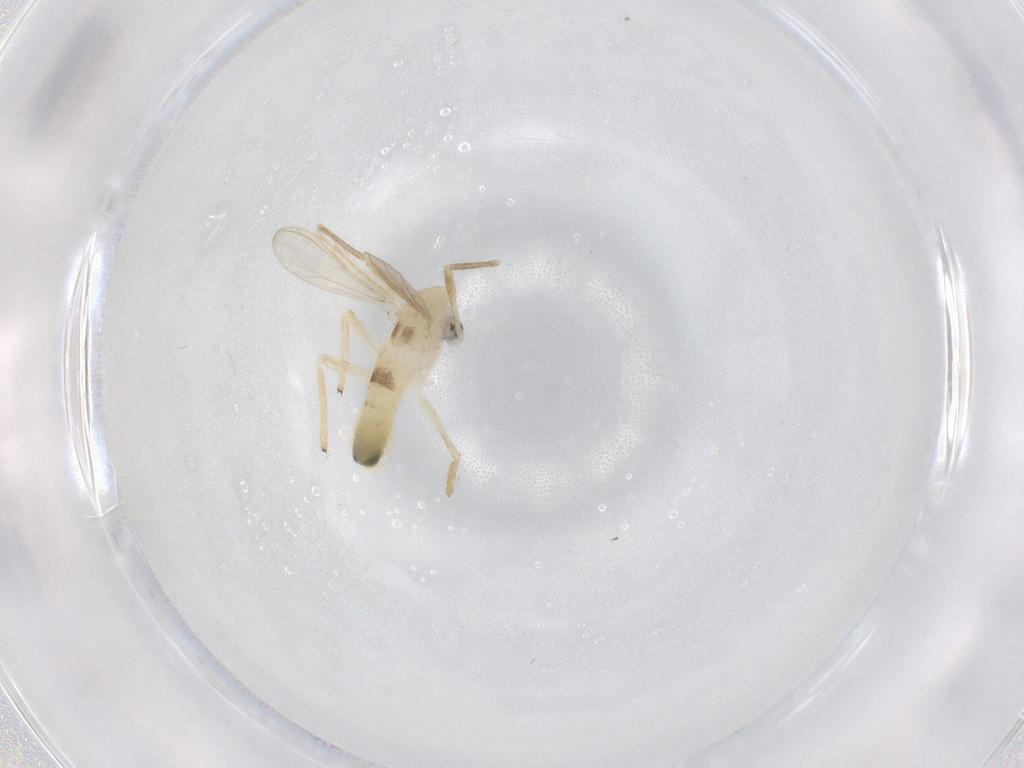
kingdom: Animalia
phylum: Arthropoda
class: Insecta
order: Diptera
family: Chironomidae
